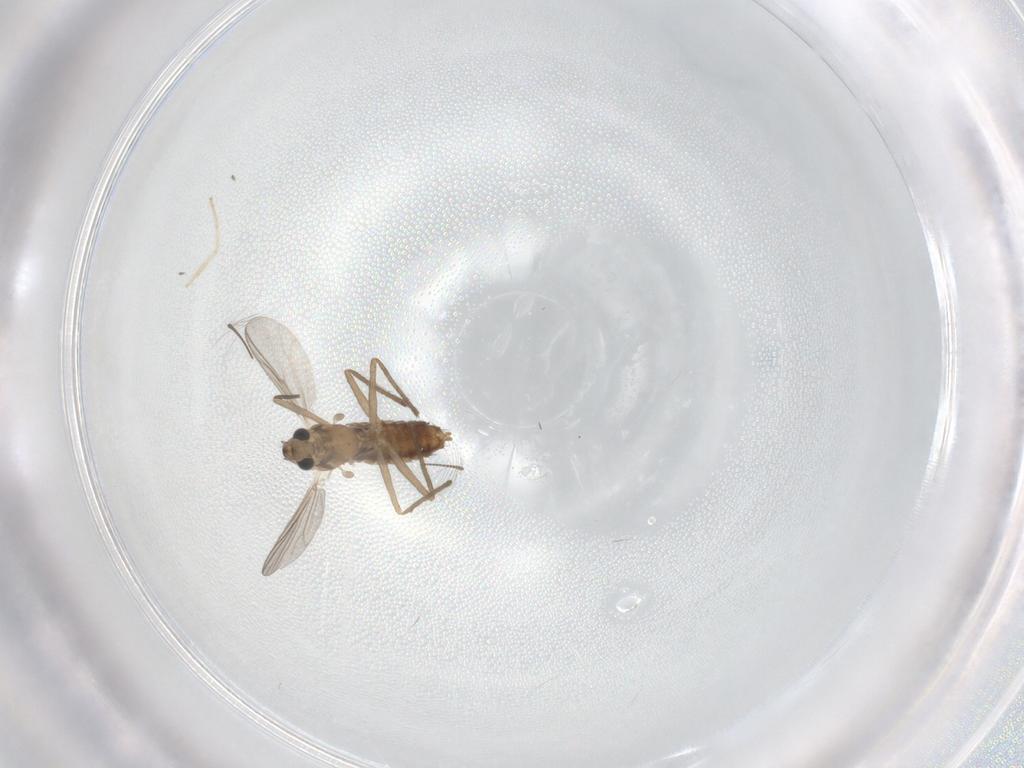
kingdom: Animalia
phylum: Arthropoda
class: Insecta
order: Diptera
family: Chironomidae
